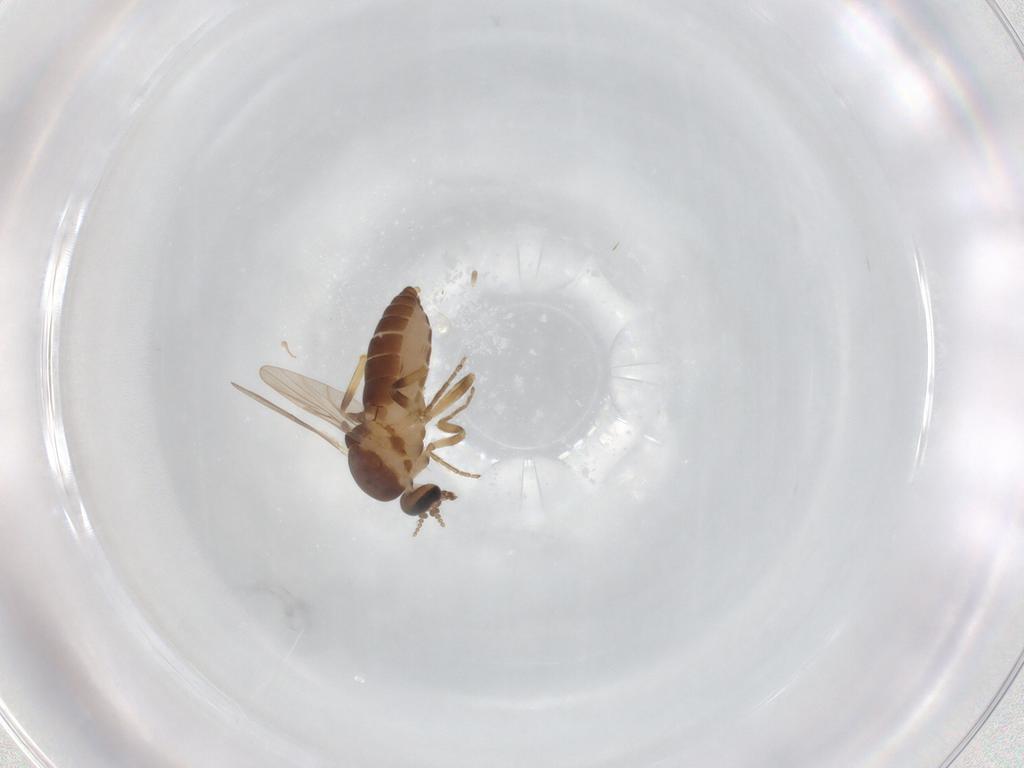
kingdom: Animalia
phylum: Arthropoda
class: Insecta
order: Diptera
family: Ceratopogonidae
